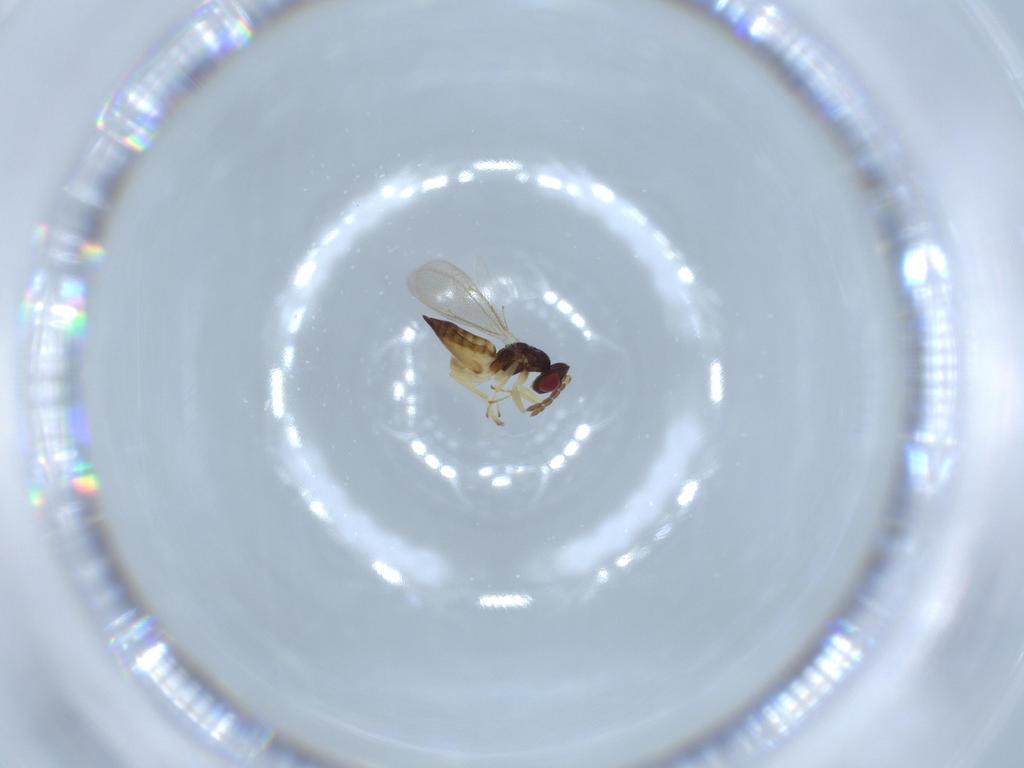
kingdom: Animalia
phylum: Arthropoda
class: Insecta
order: Hymenoptera
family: Eulophidae
